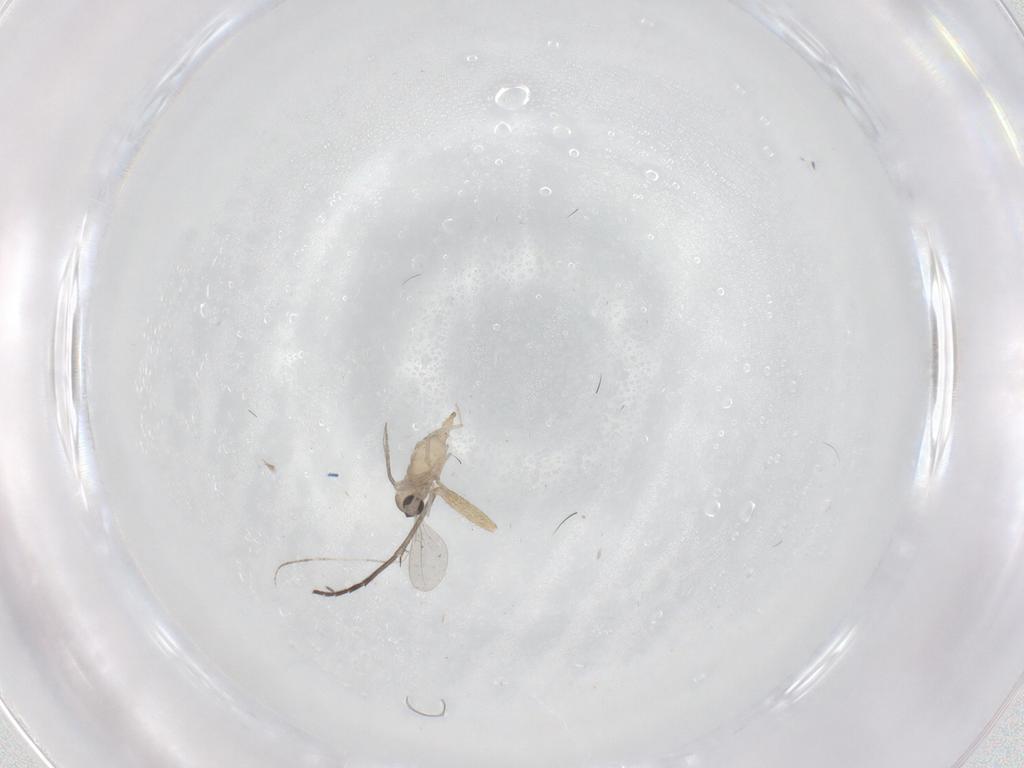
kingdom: Animalia
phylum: Arthropoda
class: Insecta
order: Diptera
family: Cecidomyiidae
